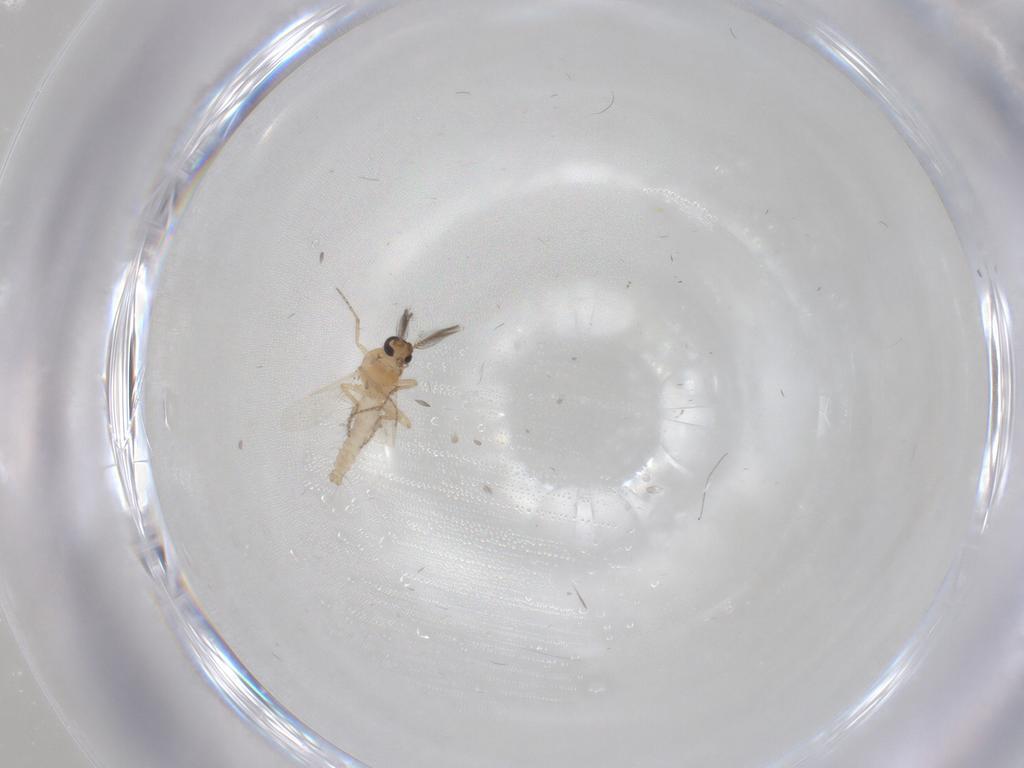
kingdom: Animalia
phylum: Arthropoda
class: Insecta
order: Diptera
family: Ceratopogonidae
